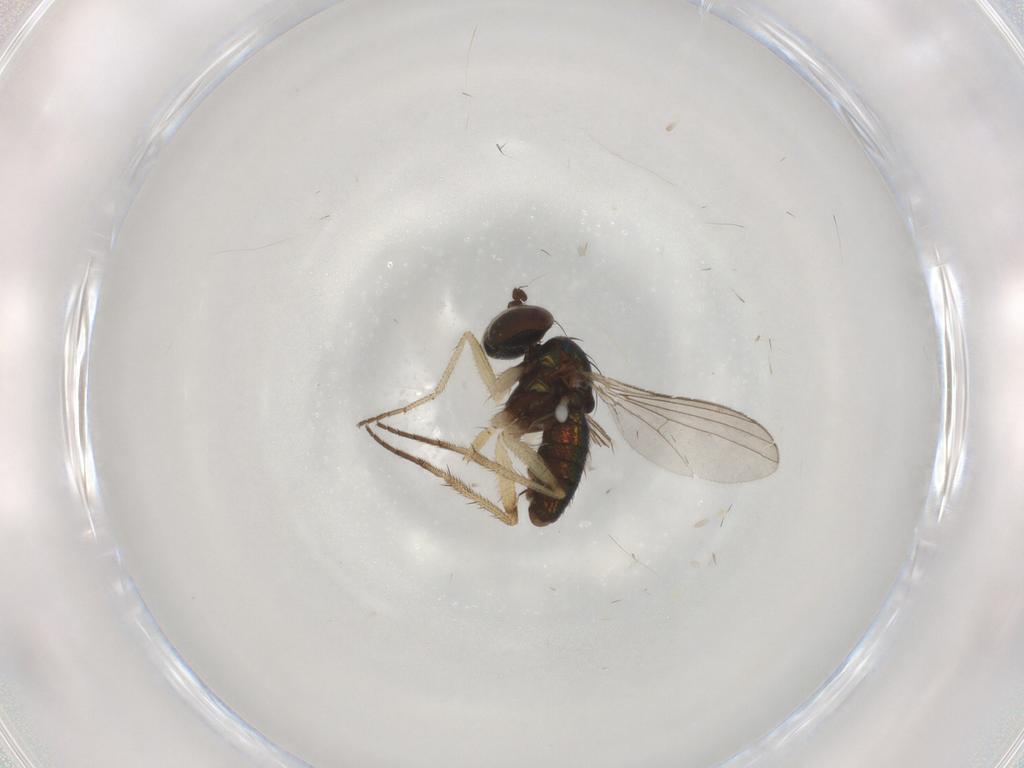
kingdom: Animalia
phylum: Arthropoda
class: Insecta
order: Diptera
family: Dolichopodidae
